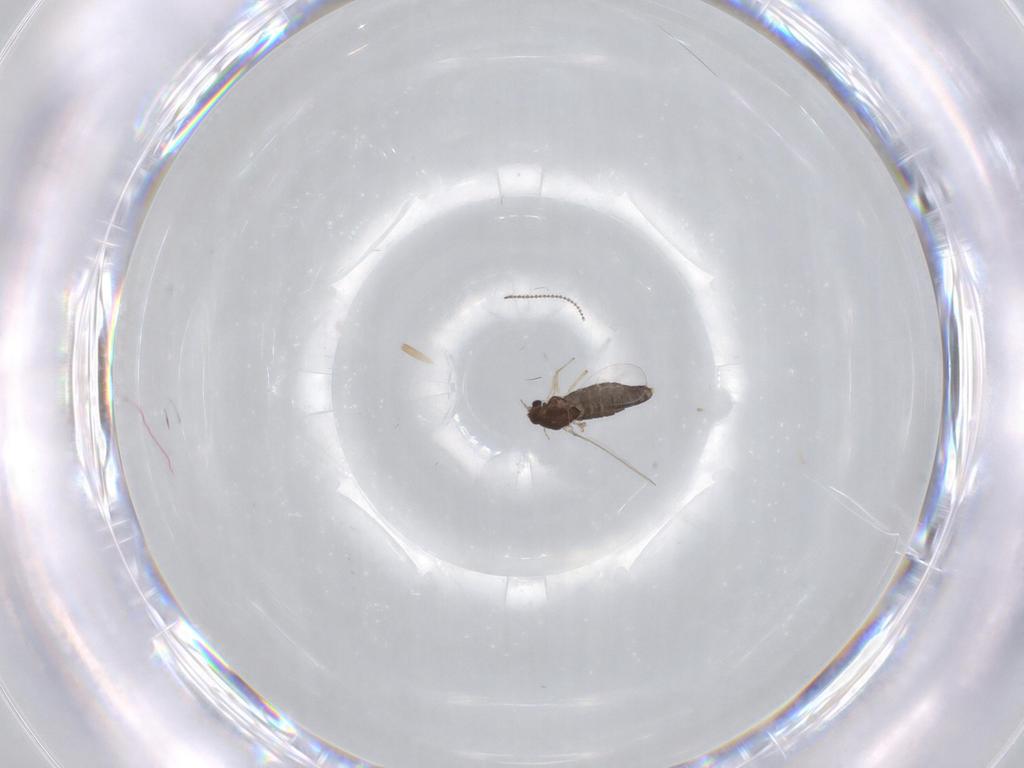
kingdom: Animalia
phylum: Arthropoda
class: Insecta
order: Diptera
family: Chironomidae
